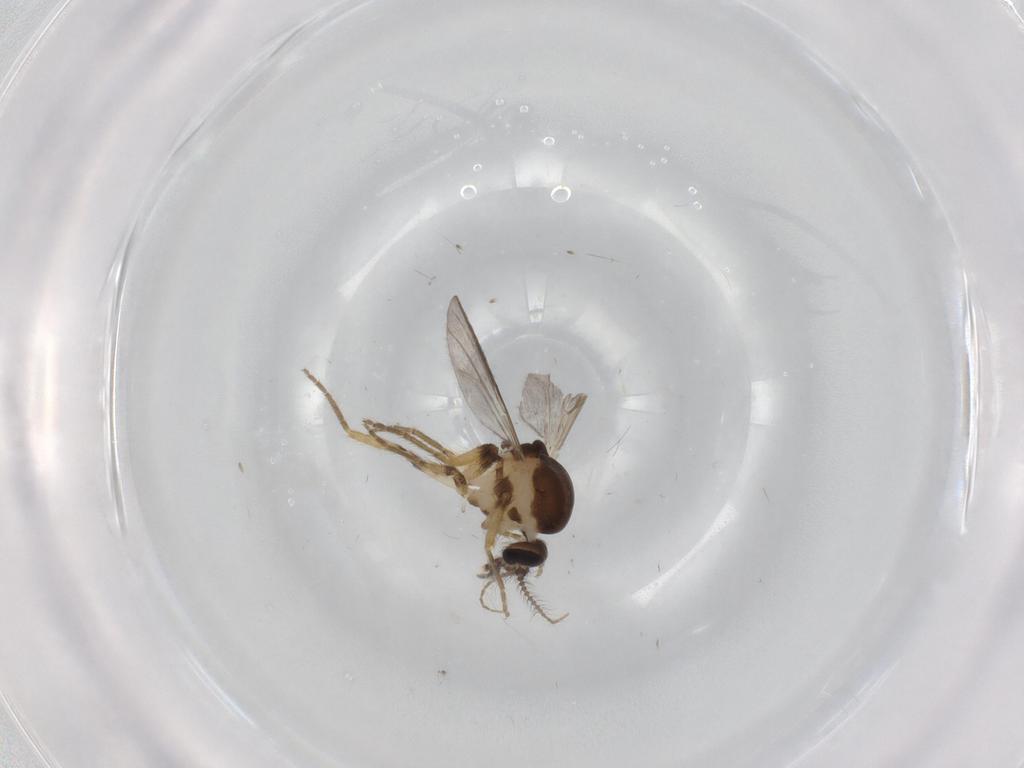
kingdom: Animalia
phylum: Arthropoda
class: Insecta
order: Diptera
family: Ceratopogonidae
